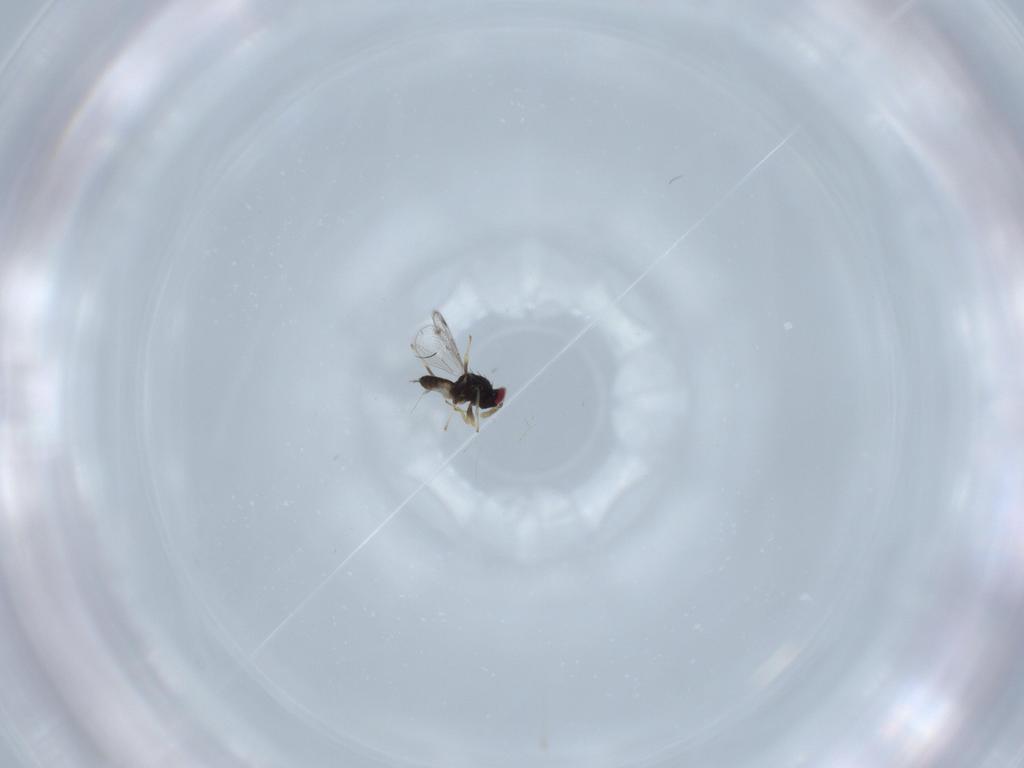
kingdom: Animalia
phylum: Arthropoda
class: Insecta
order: Hymenoptera
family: Eulophidae
